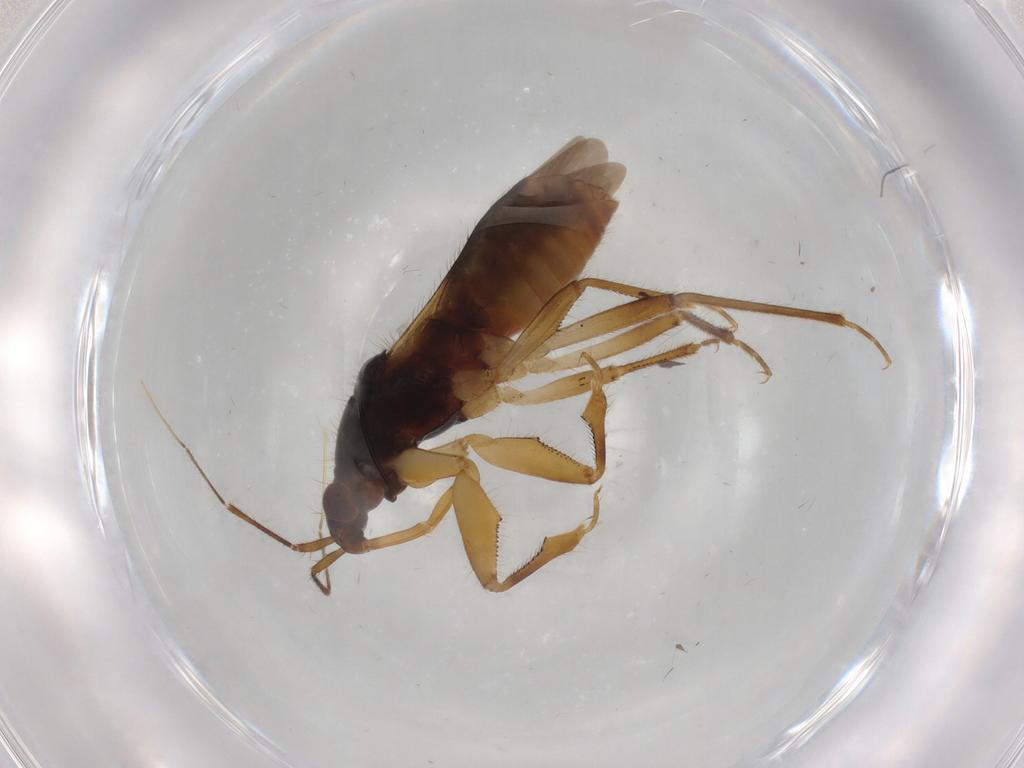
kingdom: Animalia
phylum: Arthropoda
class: Insecta
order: Hemiptera
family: Nabidae
